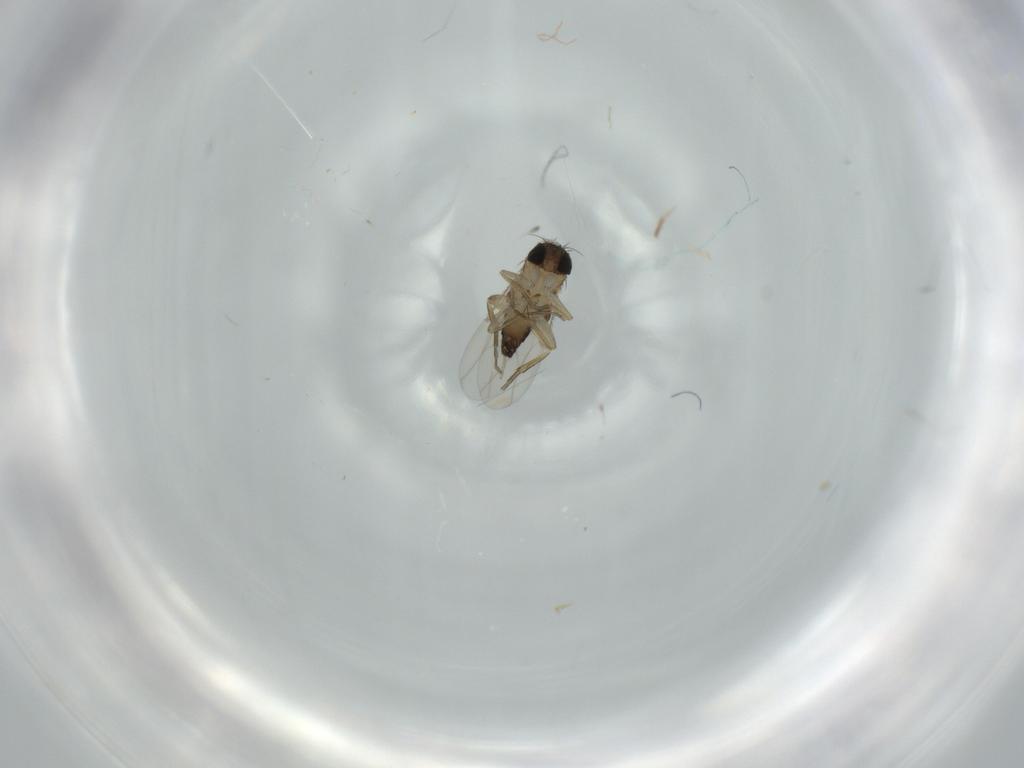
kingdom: Animalia
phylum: Arthropoda
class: Insecta
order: Diptera
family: Phoridae
